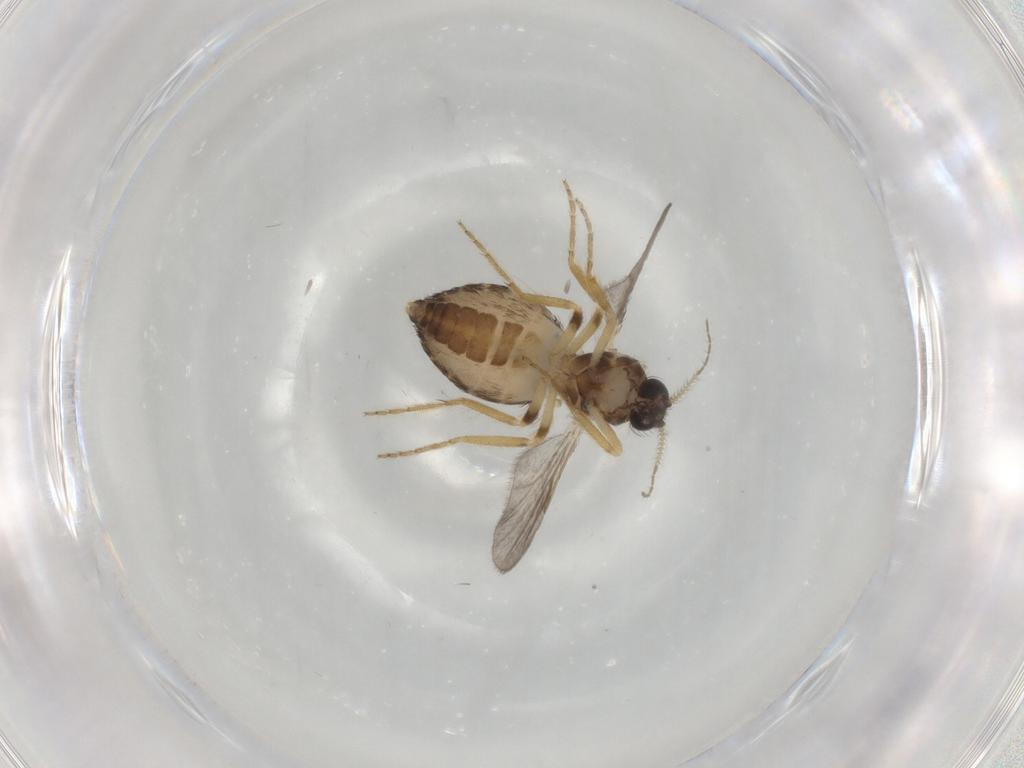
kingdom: Animalia
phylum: Arthropoda
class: Insecta
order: Diptera
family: Ceratopogonidae
